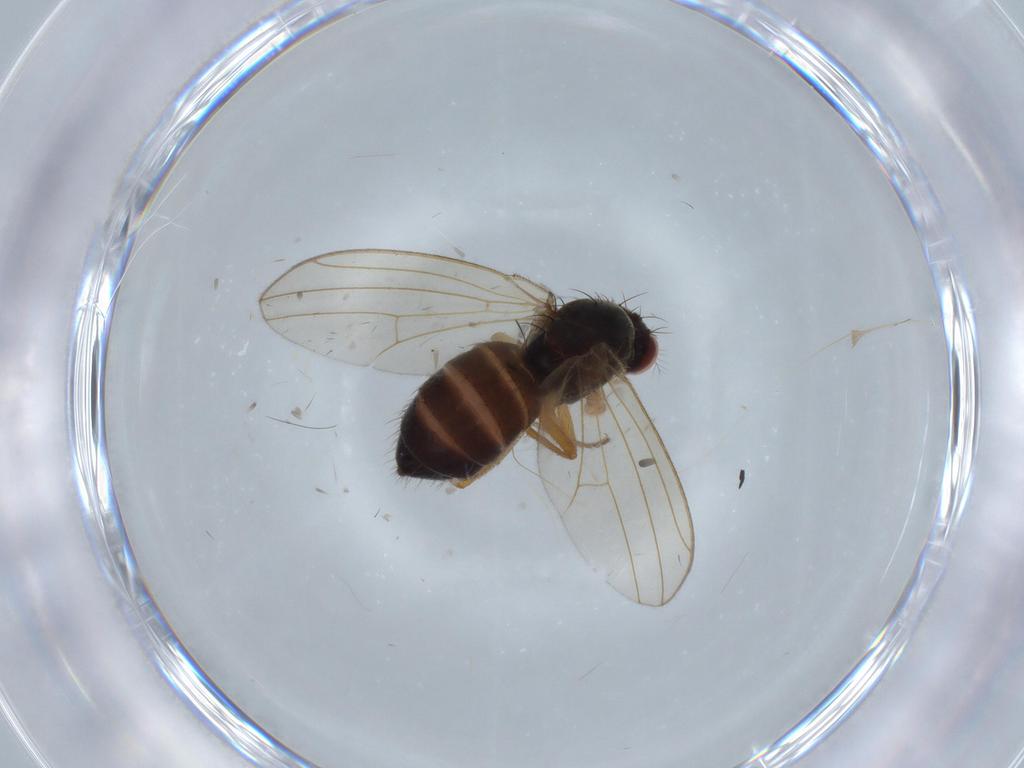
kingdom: Animalia
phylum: Arthropoda
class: Insecta
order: Diptera
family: Drosophilidae
